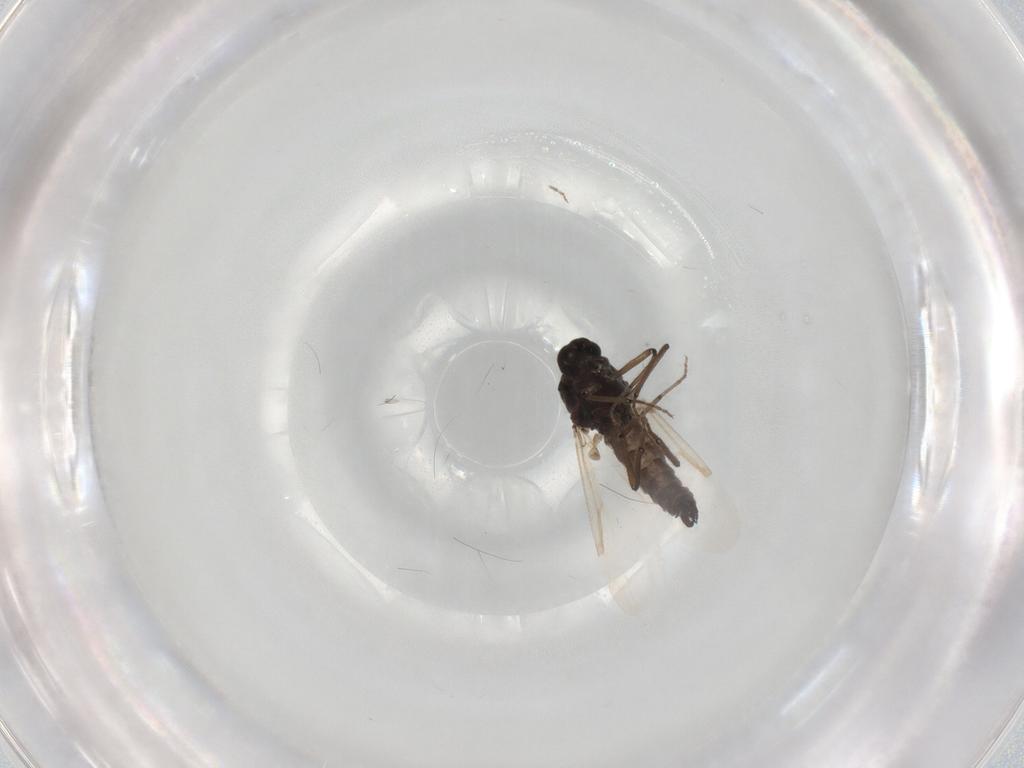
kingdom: Animalia
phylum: Arthropoda
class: Insecta
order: Diptera
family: Ceratopogonidae
